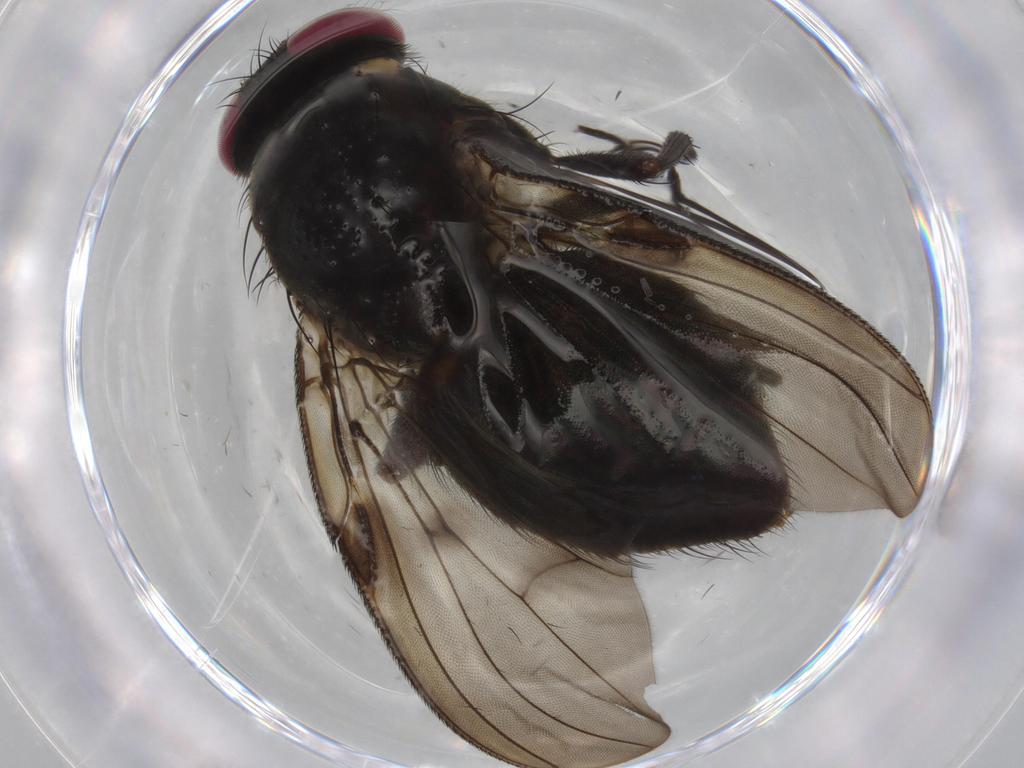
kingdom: Animalia
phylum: Arthropoda
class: Insecta
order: Diptera
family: Muscidae
